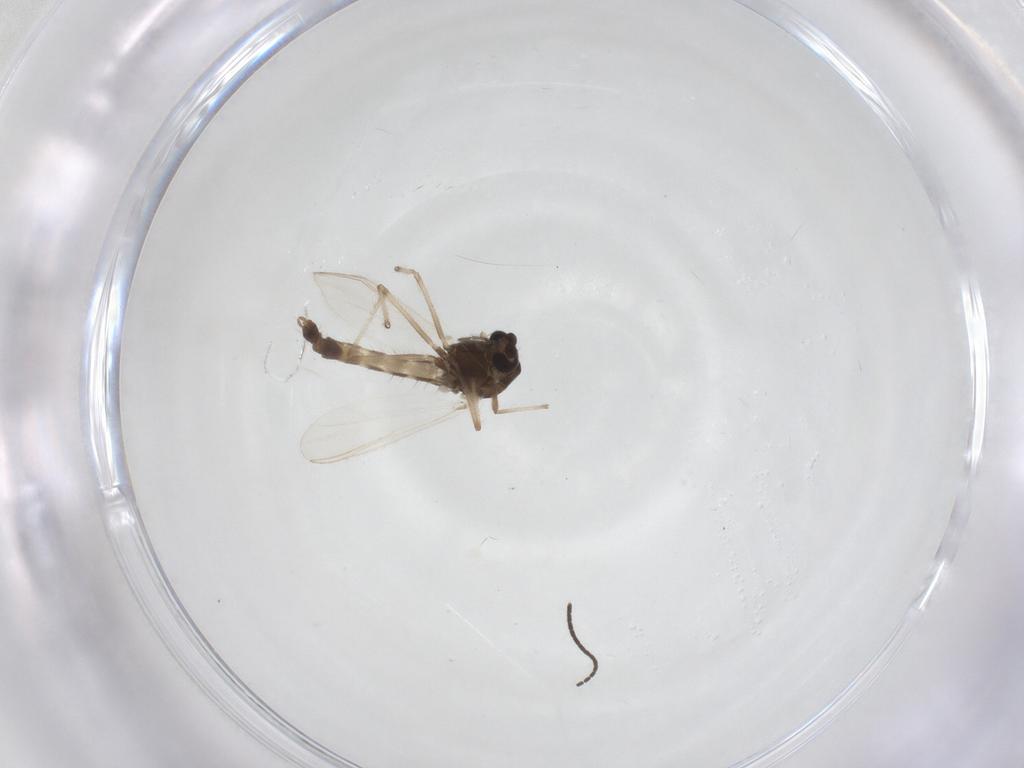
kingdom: Animalia
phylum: Arthropoda
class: Insecta
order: Diptera
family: Chironomidae
